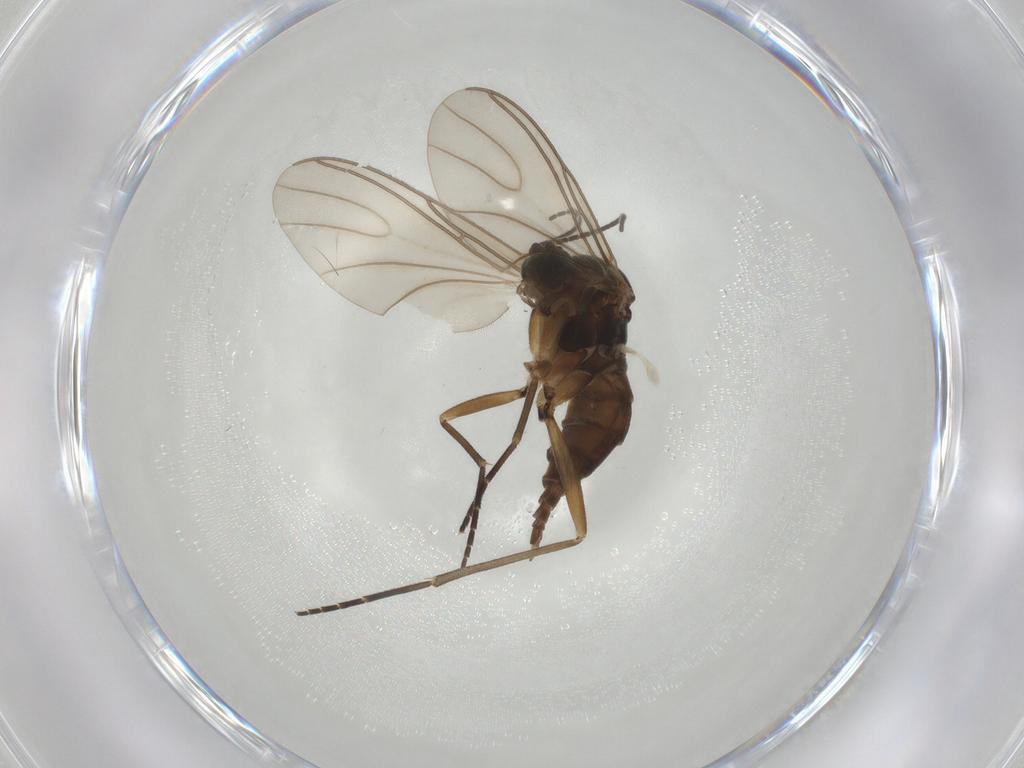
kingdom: Animalia
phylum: Arthropoda
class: Insecta
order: Diptera
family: Sciaridae
